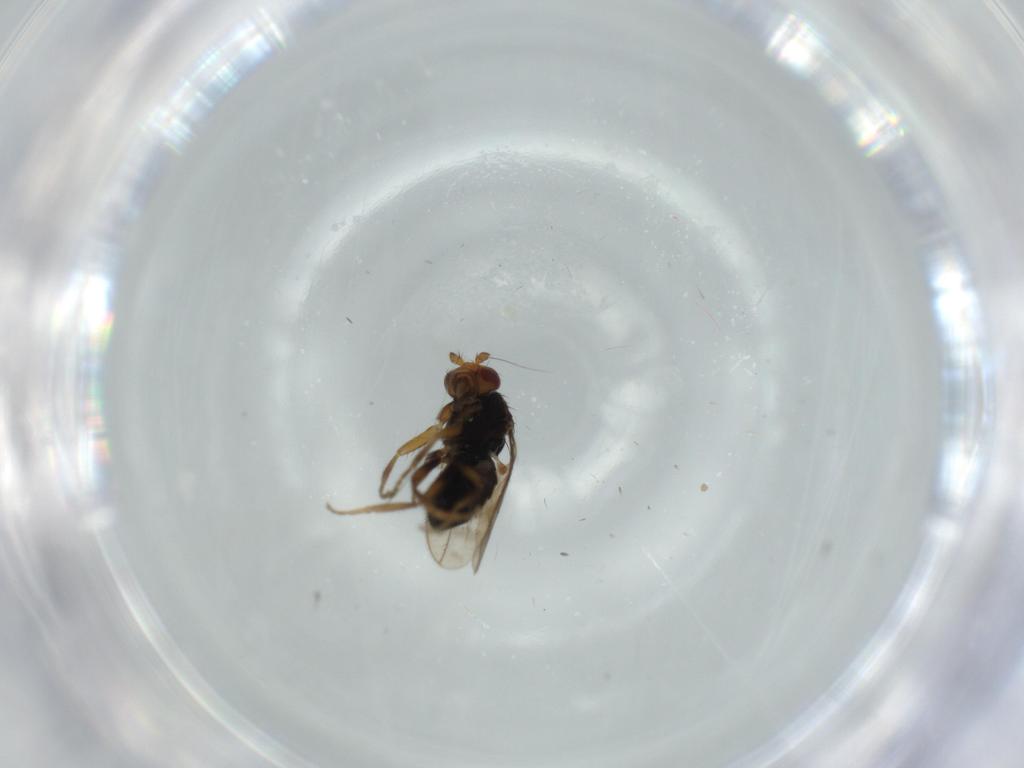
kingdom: Animalia
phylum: Arthropoda
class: Insecta
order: Diptera
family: Sphaeroceridae
